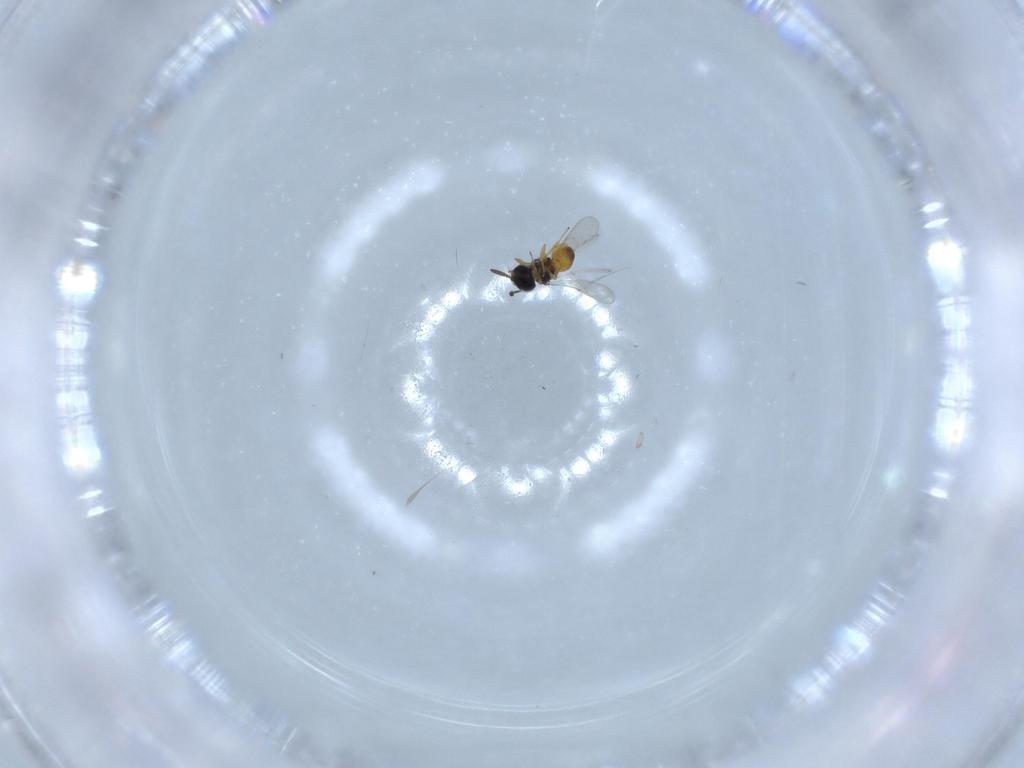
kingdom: Animalia
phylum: Arthropoda
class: Insecta
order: Hymenoptera
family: Scelionidae
